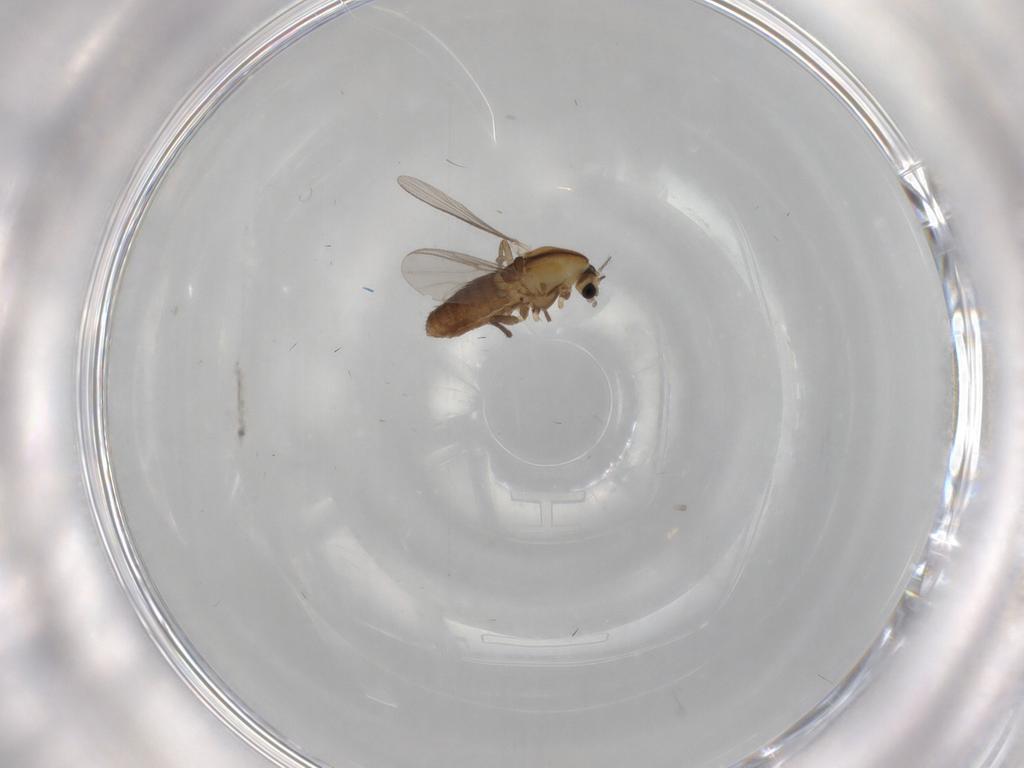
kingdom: Animalia
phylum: Arthropoda
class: Insecta
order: Diptera
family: Chironomidae
